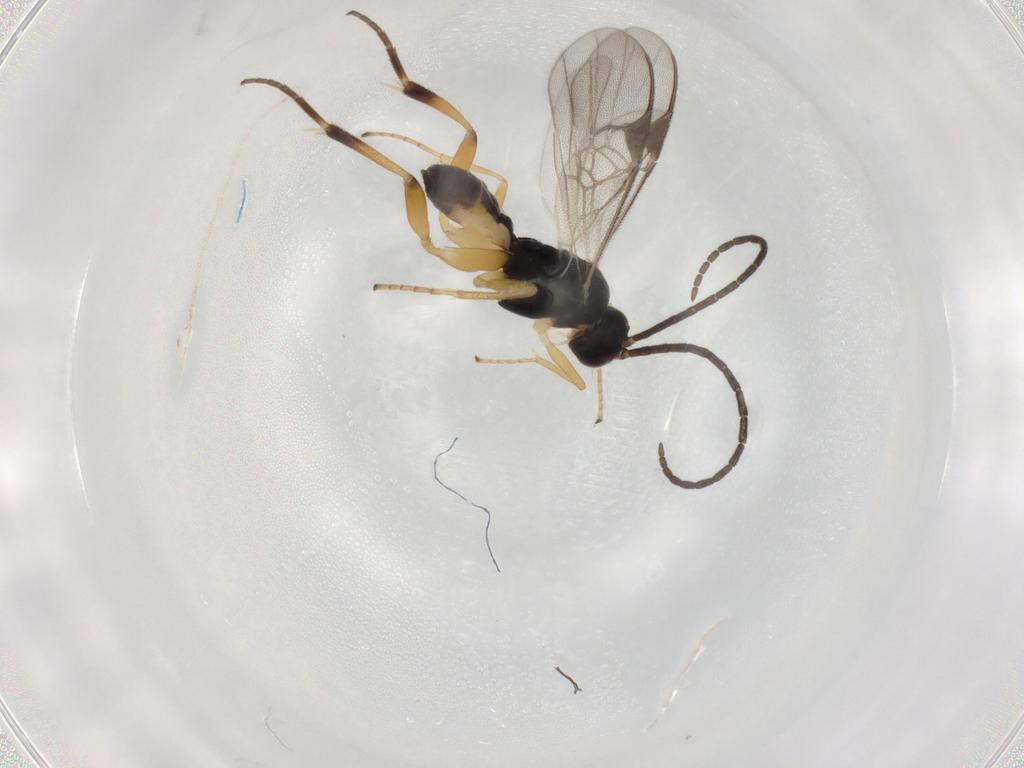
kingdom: Animalia
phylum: Arthropoda
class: Insecta
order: Hymenoptera
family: Braconidae
